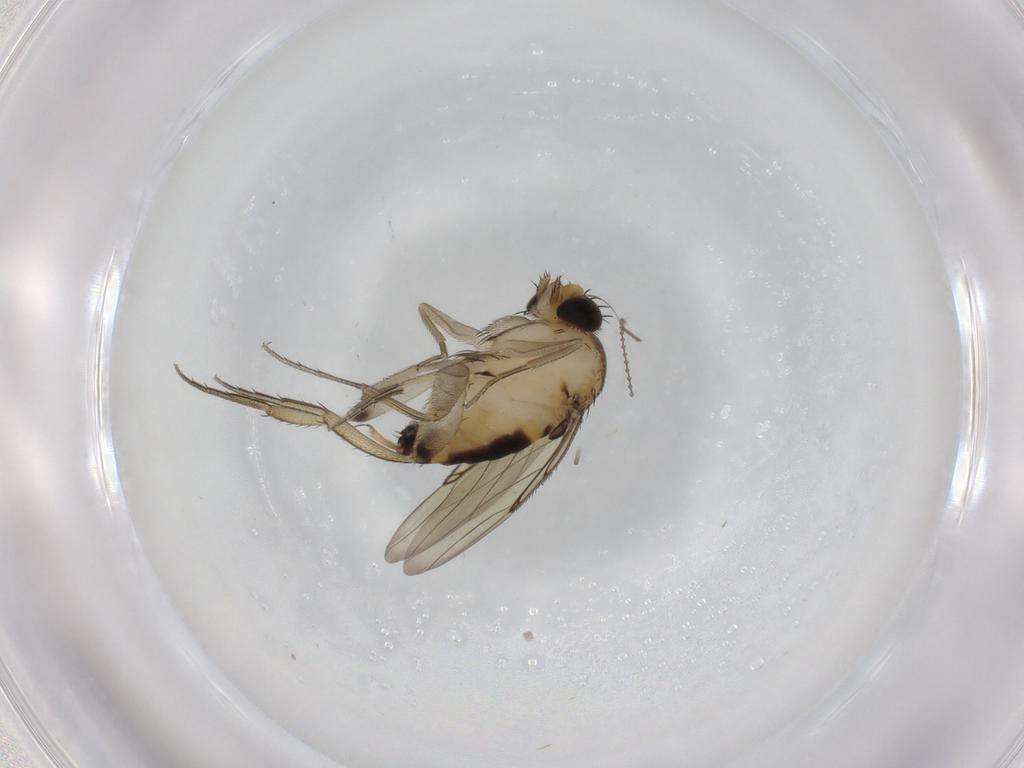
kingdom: Animalia
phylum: Arthropoda
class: Insecta
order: Diptera
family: Phoridae
